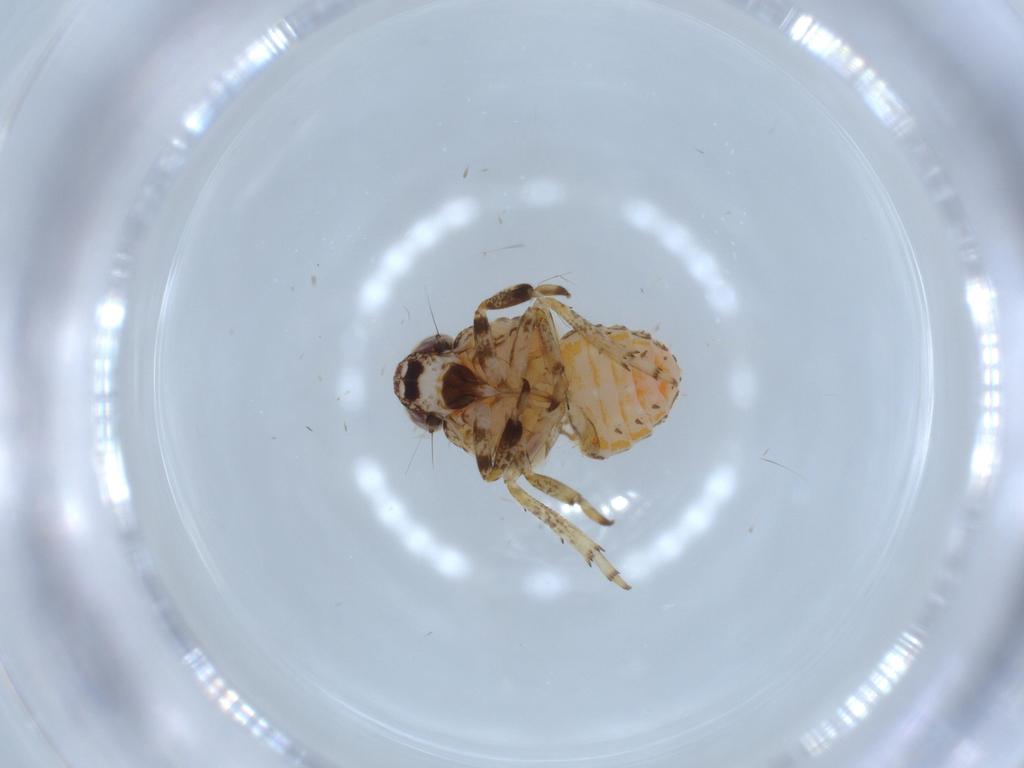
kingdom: Animalia
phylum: Arthropoda
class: Insecta
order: Hemiptera
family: Issidae
